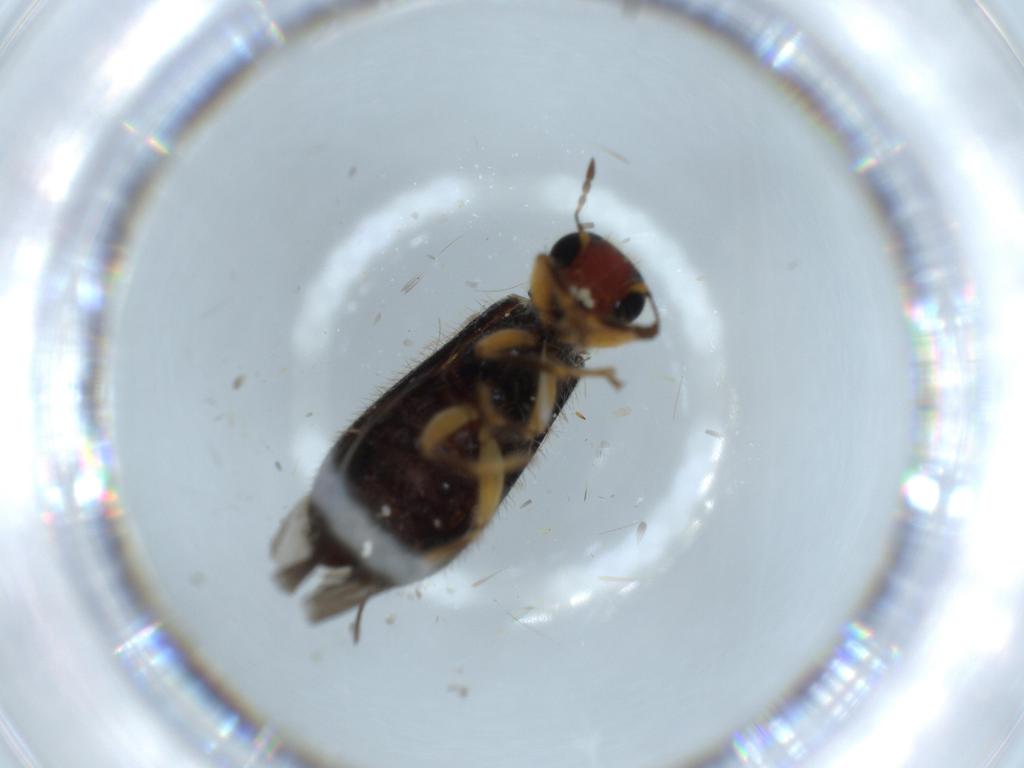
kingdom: Animalia
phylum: Arthropoda
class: Insecta
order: Coleoptera
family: Cleridae
